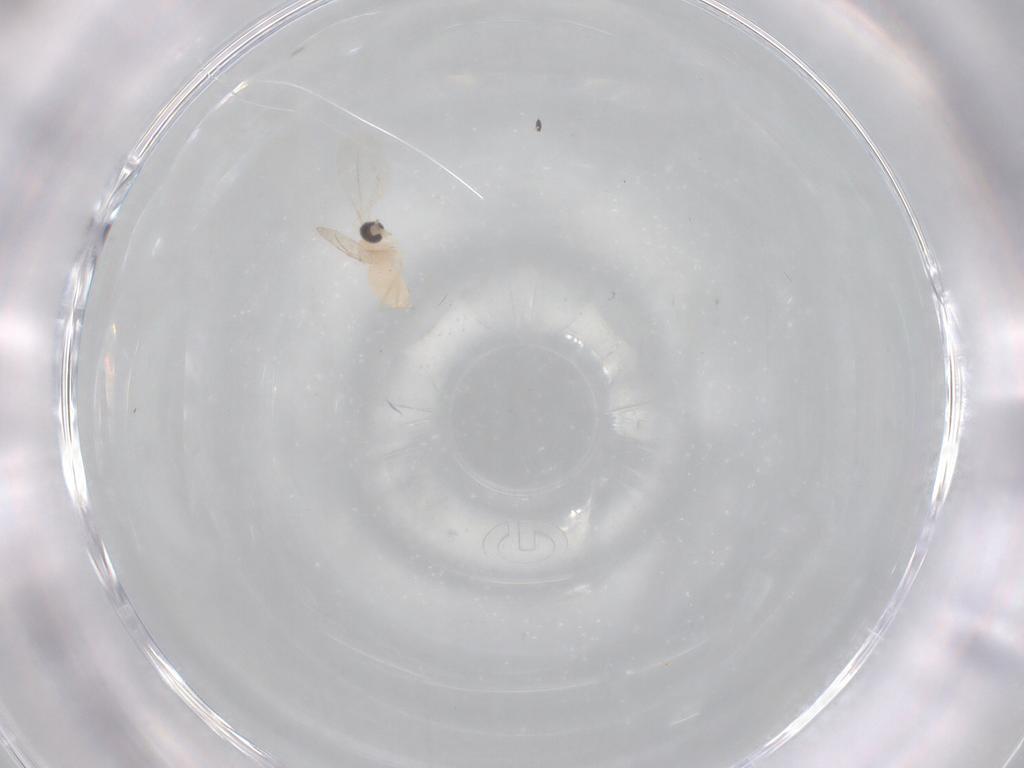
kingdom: Animalia
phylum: Arthropoda
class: Insecta
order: Diptera
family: Cecidomyiidae
